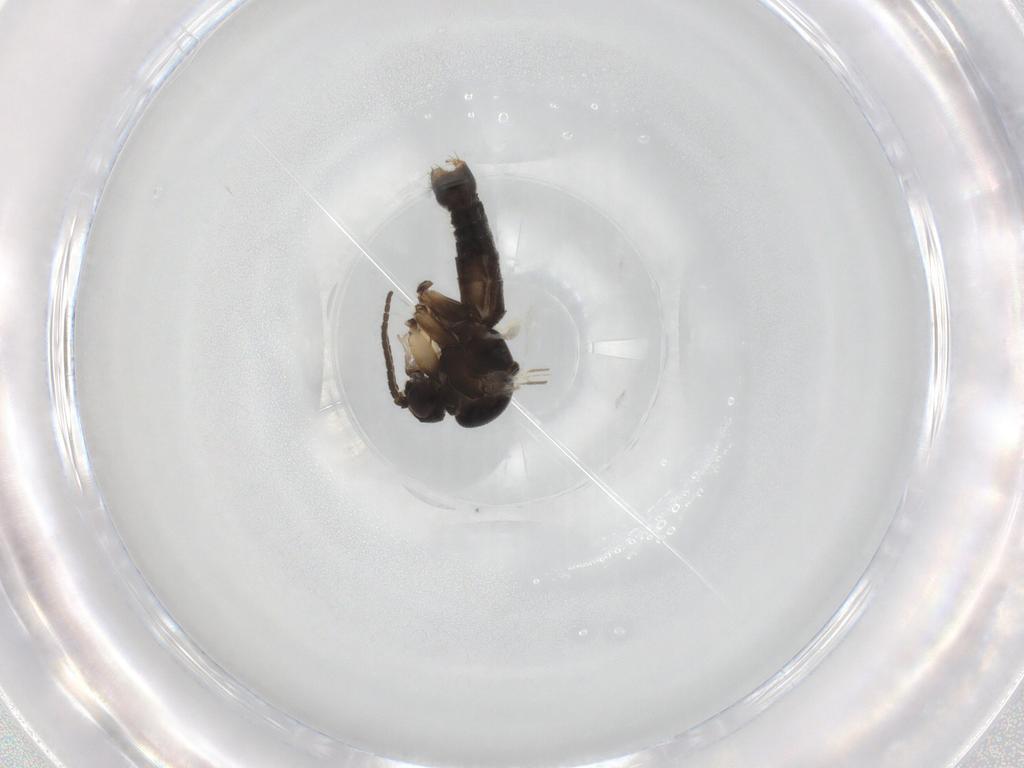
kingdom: Animalia
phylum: Arthropoda
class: Insecta
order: Diptera
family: Mycetophilidae
